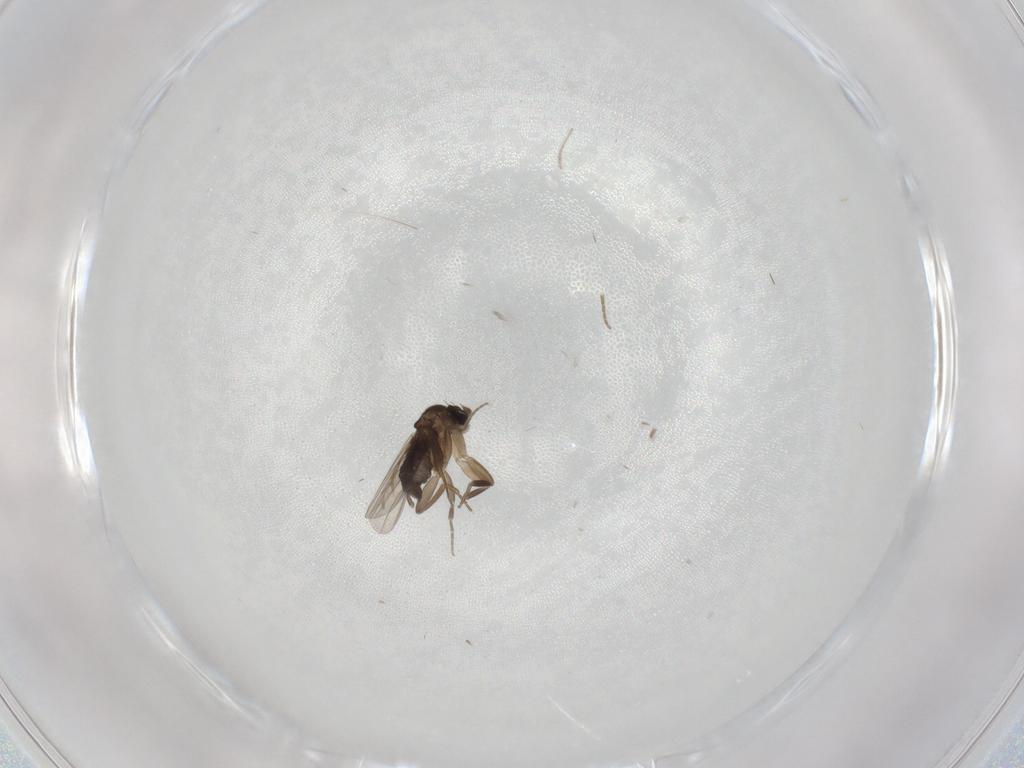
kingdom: Animalia
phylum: Arthropoda
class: Insecta
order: Diptera
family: Phoridae
